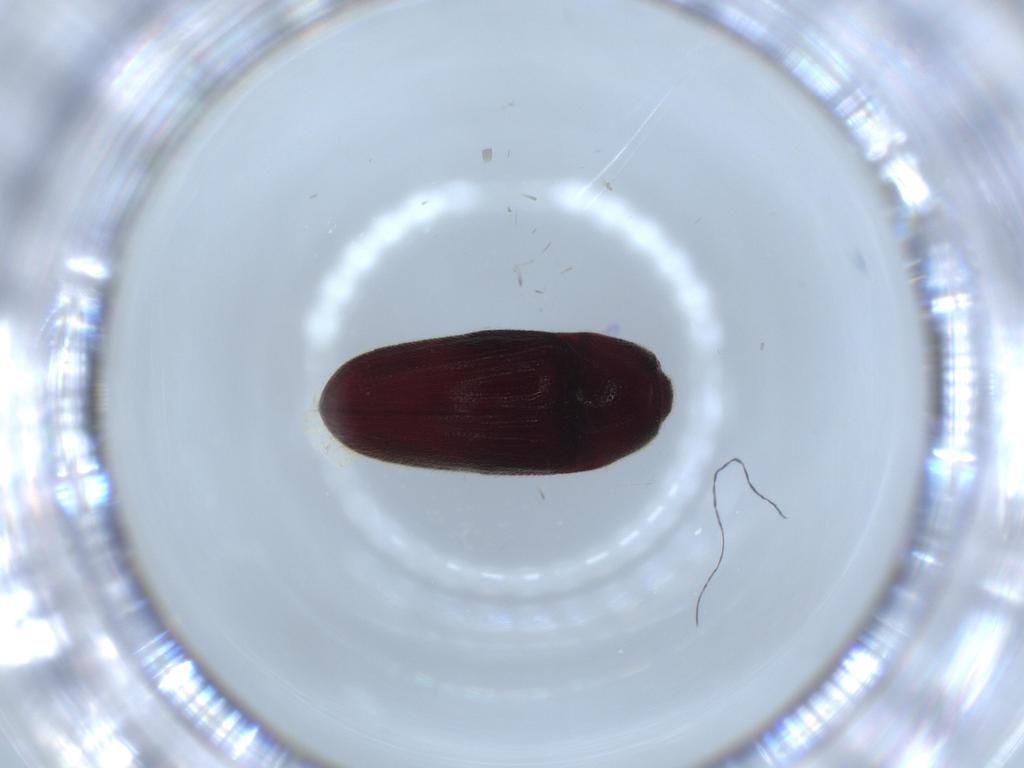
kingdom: Animalia
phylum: Arthropoda
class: Insecta
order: Coleoptera
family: Throscidae
